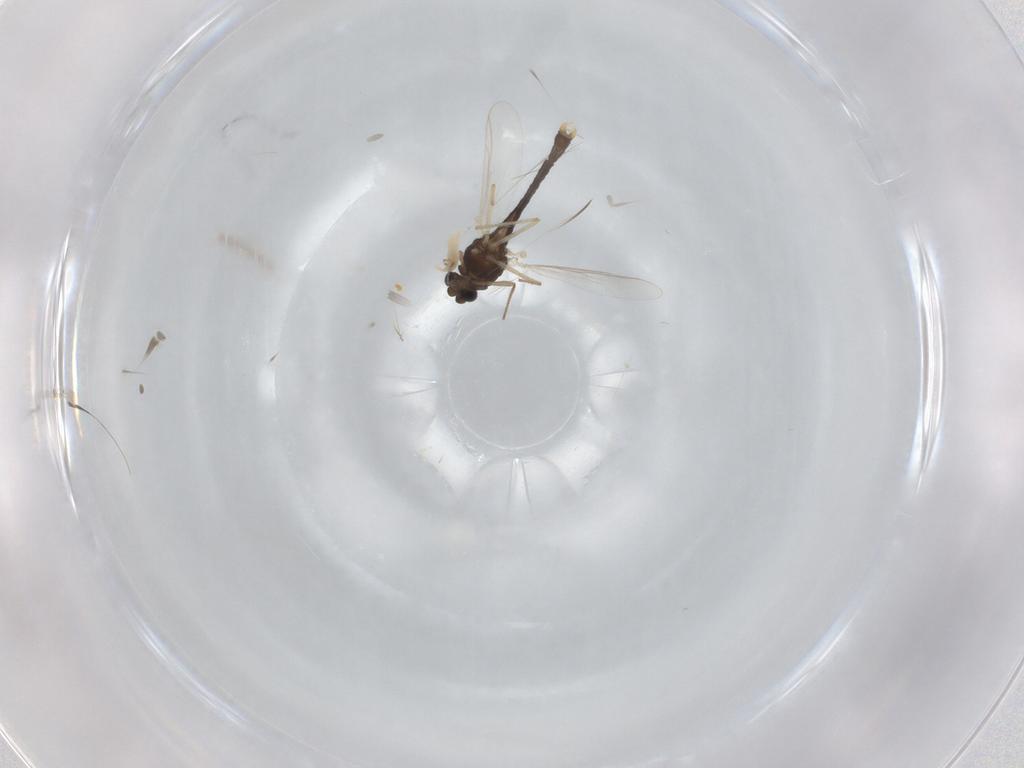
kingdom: Animalia
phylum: Arthropoda
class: Insecta
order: Diptera
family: Chironomidae
